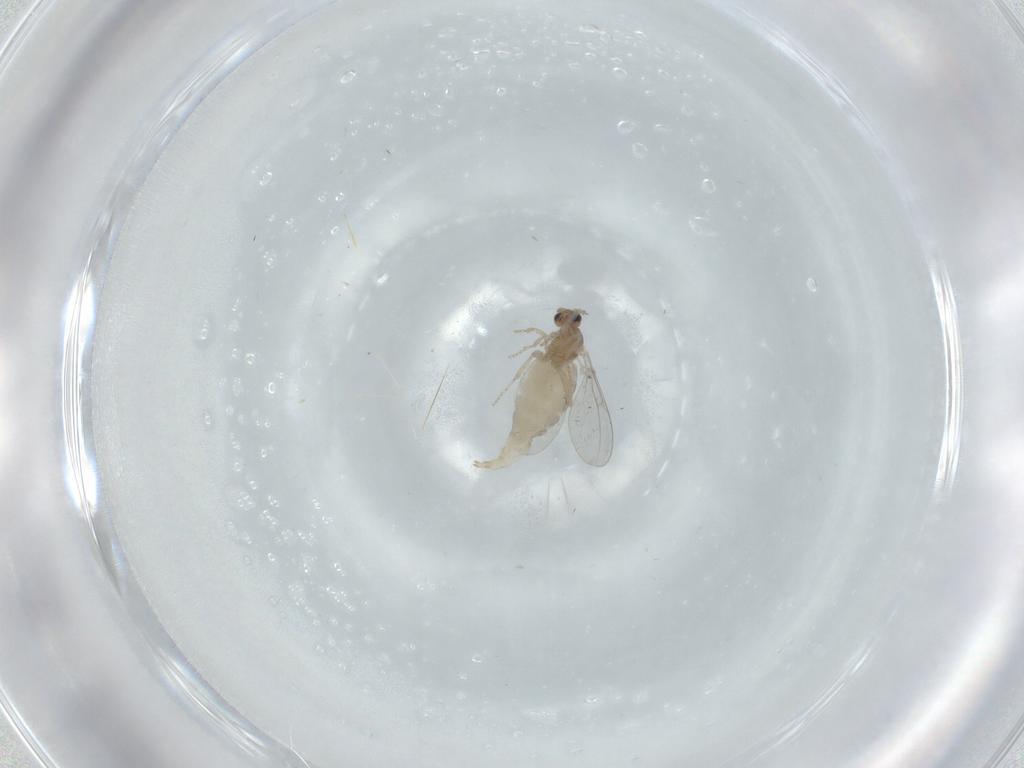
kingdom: Animalia
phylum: Arthropoda
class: Insecta
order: Diptera
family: Cecidomyiidae
